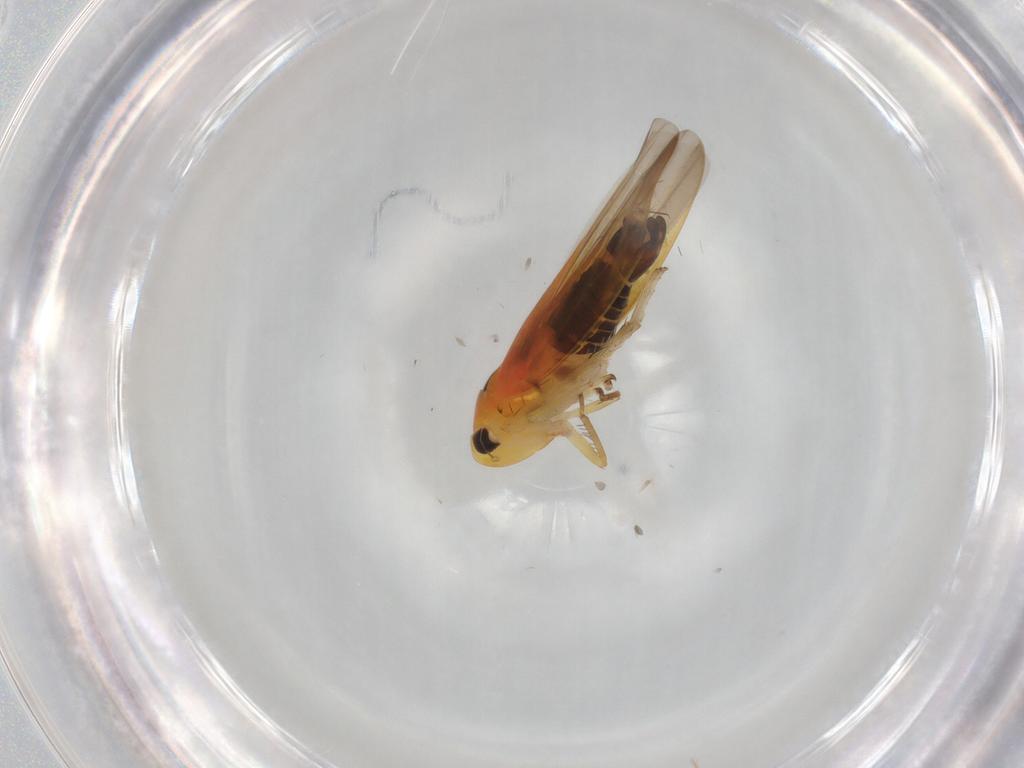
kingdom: Animalia
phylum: Arthropoda
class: Insecta
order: Hemiptera
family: Cicadellidae
